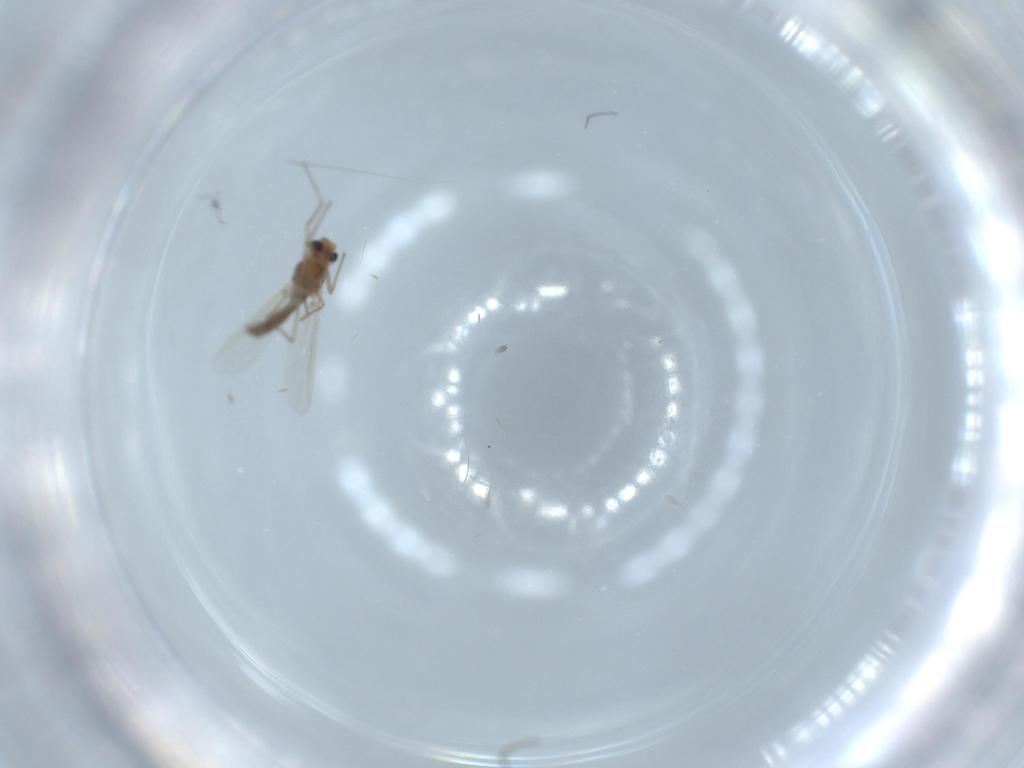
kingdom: Animalia
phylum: Arthropoda
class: Insecta
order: Diptera
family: Chironomidae
